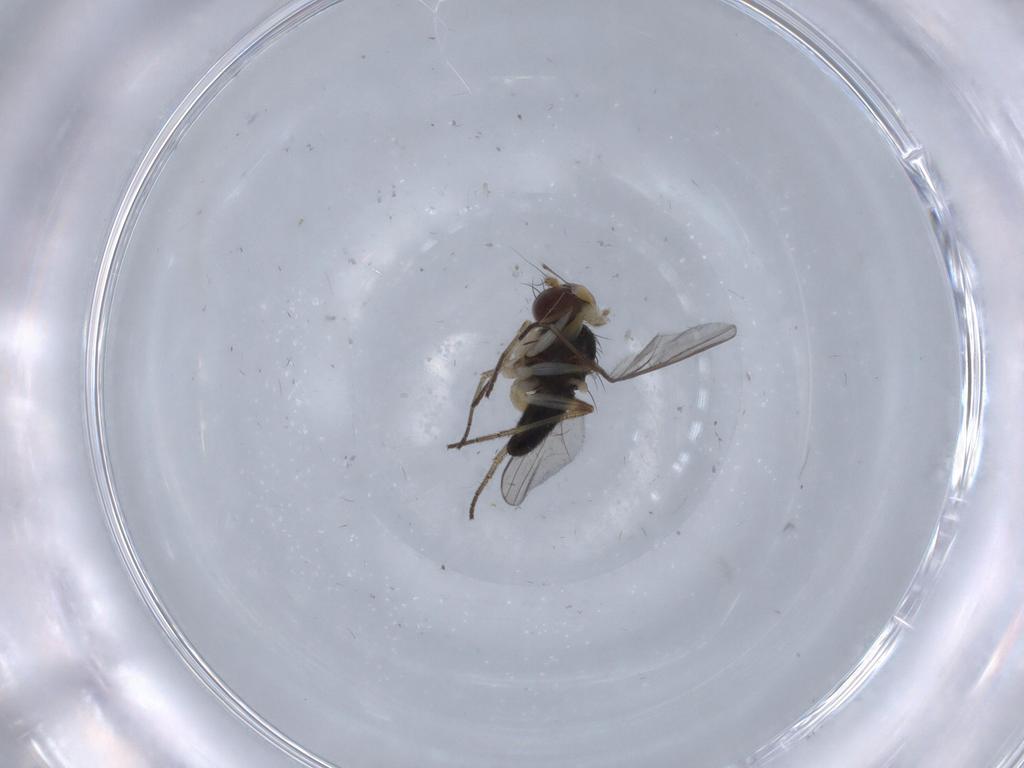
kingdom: Animalia
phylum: Arthropoda
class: Insecta
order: Diptera
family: Dolichopodidae
